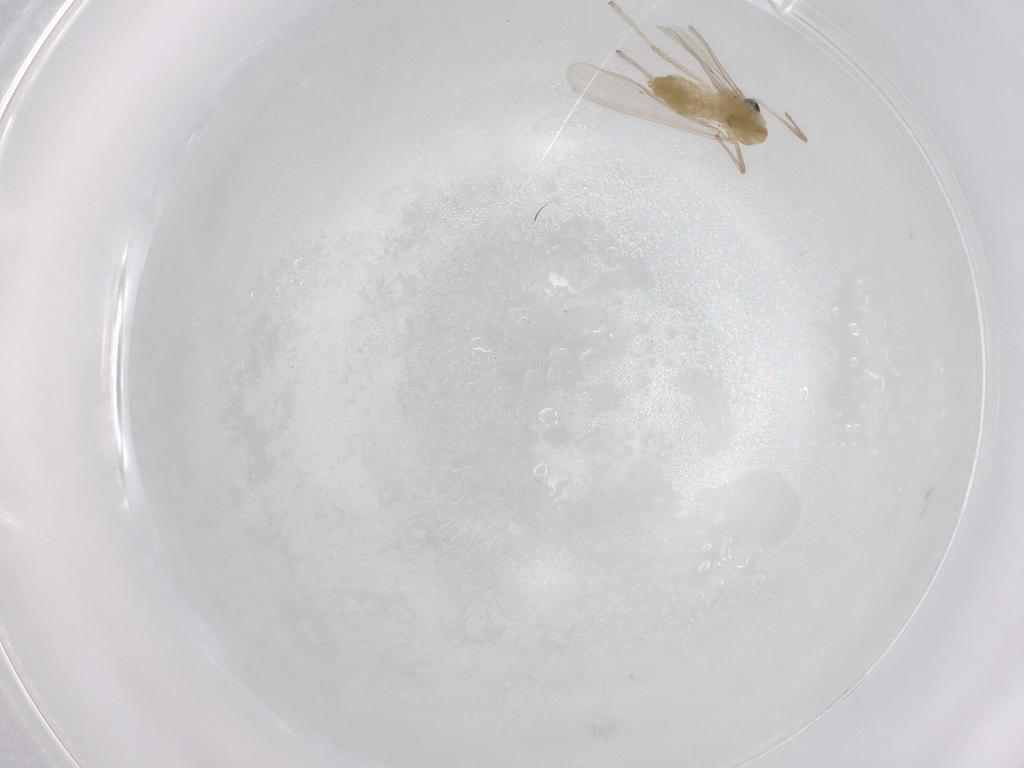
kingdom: Animalia
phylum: Arthropoda
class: Insecta
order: Diptera
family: Chironomidae
